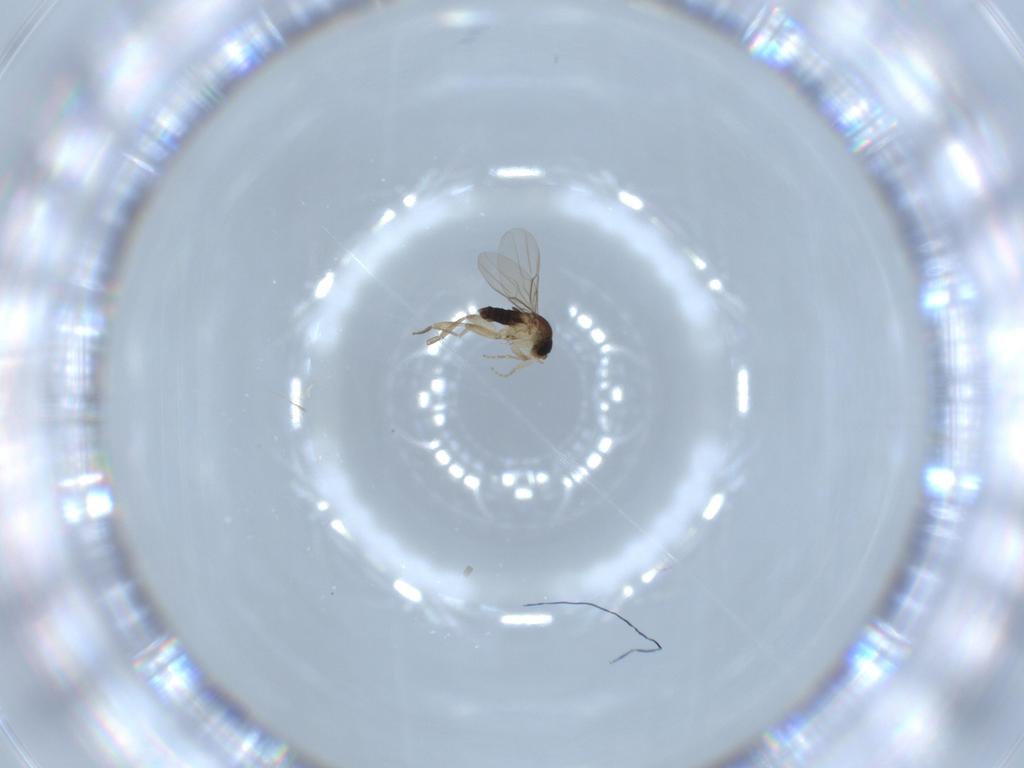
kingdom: Animalia
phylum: Arthropoda
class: Insecta
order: Diptera
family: Phoridae
